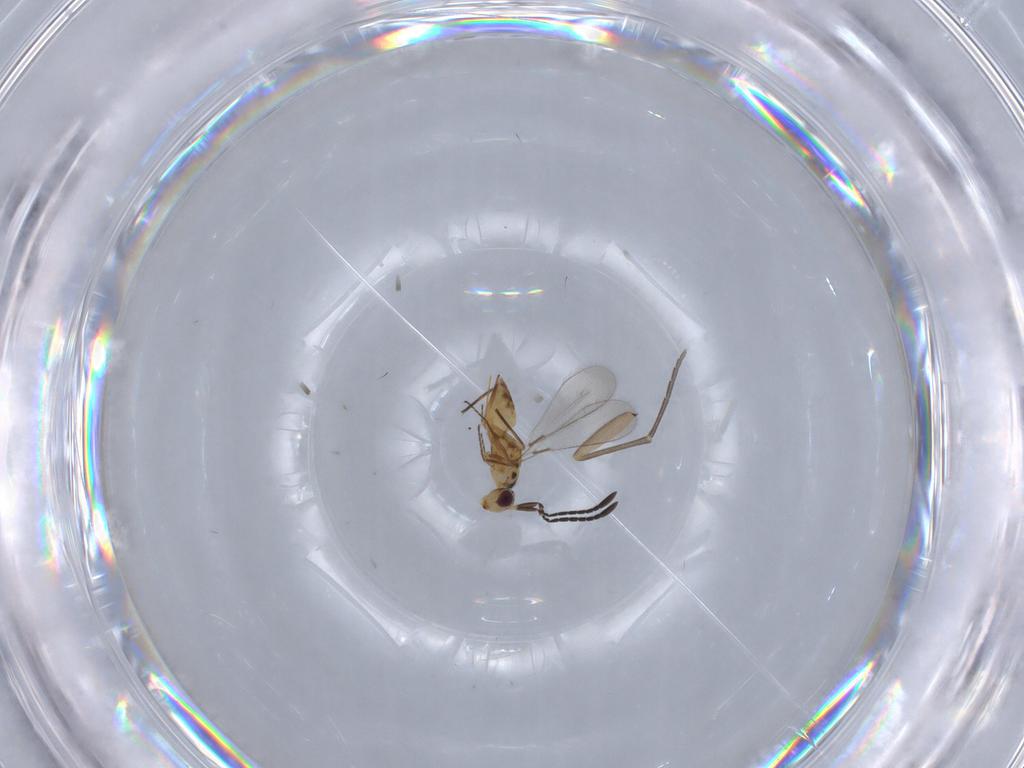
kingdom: Animalia
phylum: Arthropoda
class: Insecta
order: Hymenoptera
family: Mymaridae
